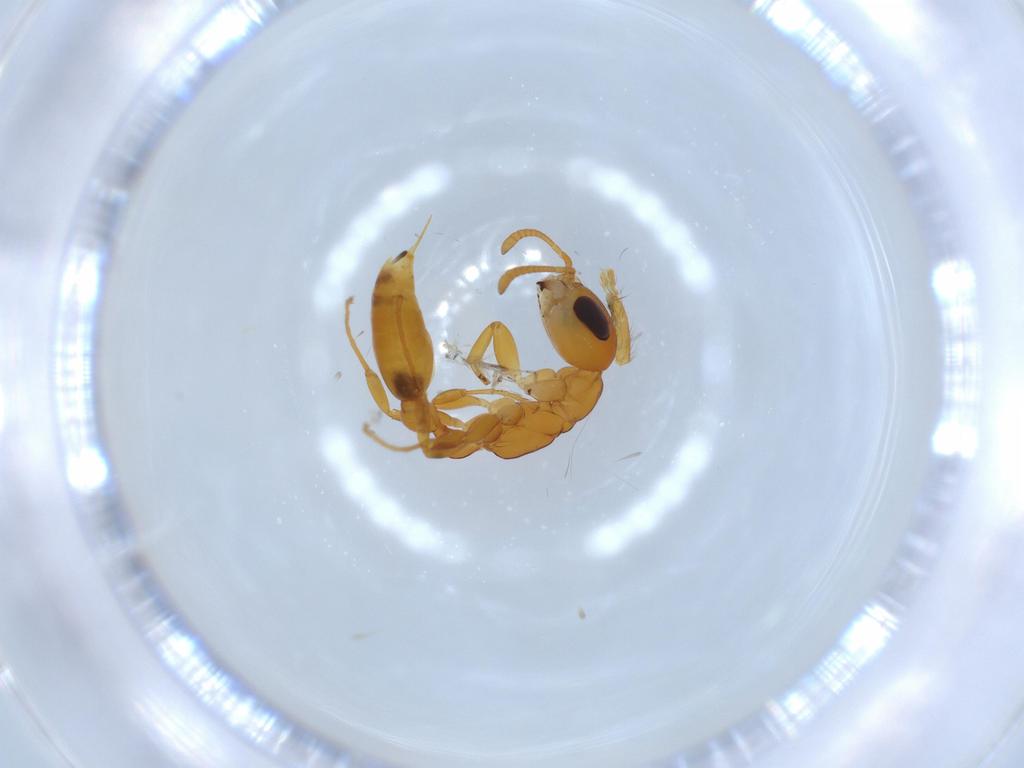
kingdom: Animalia
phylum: Arthropoda
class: Insecta
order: Hymenoptera
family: Formicidae
